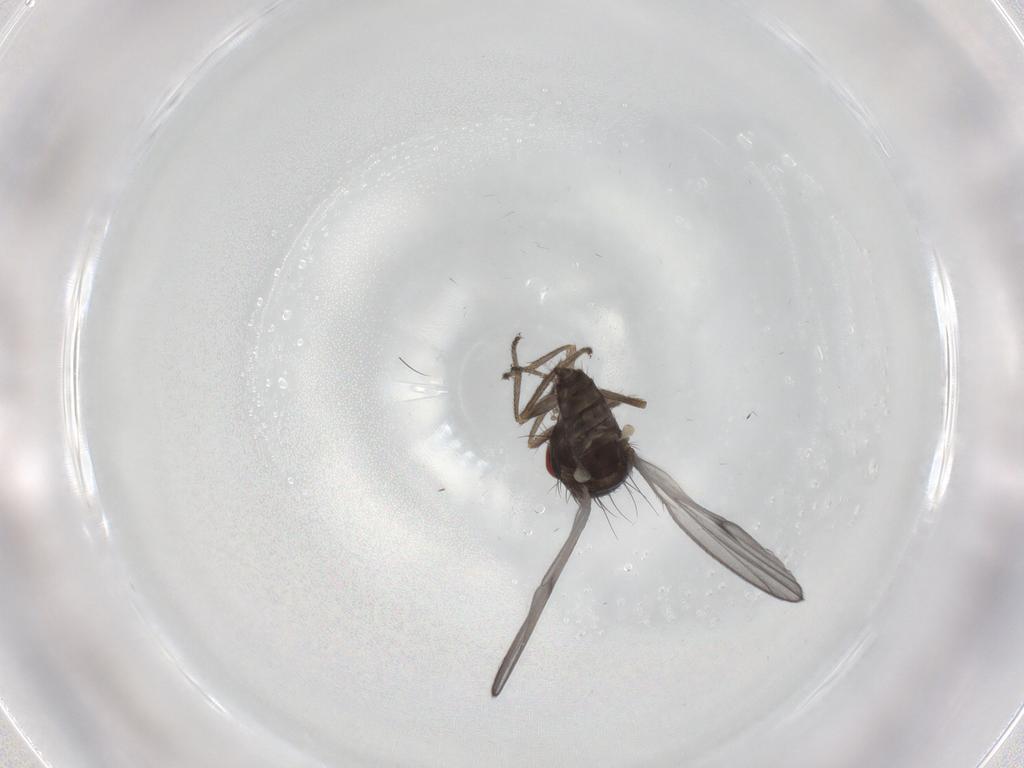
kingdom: Animalia
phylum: Arthropoda
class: Insecta
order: Diptera
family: Drosophilidae
